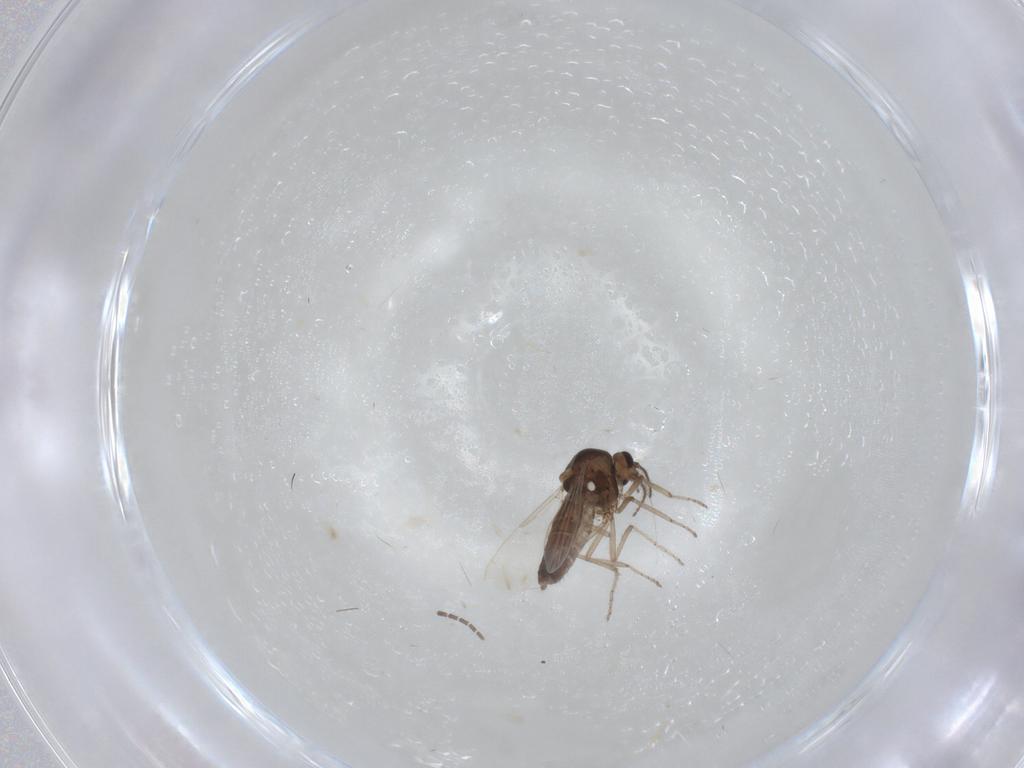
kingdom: Animalia
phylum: Arthropoda
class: Insecta
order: Diptera
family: Ceratopogonidae
